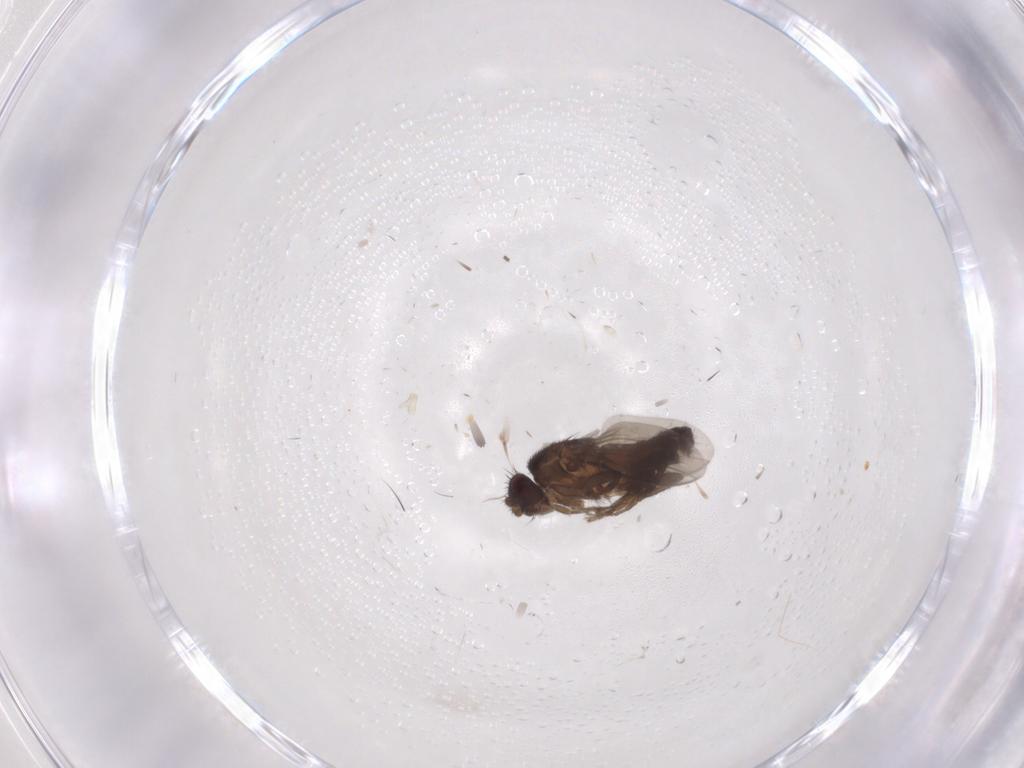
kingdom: Animalia
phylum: Arthropoda
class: Insecta
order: Diptera
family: Sphaeroceridae
